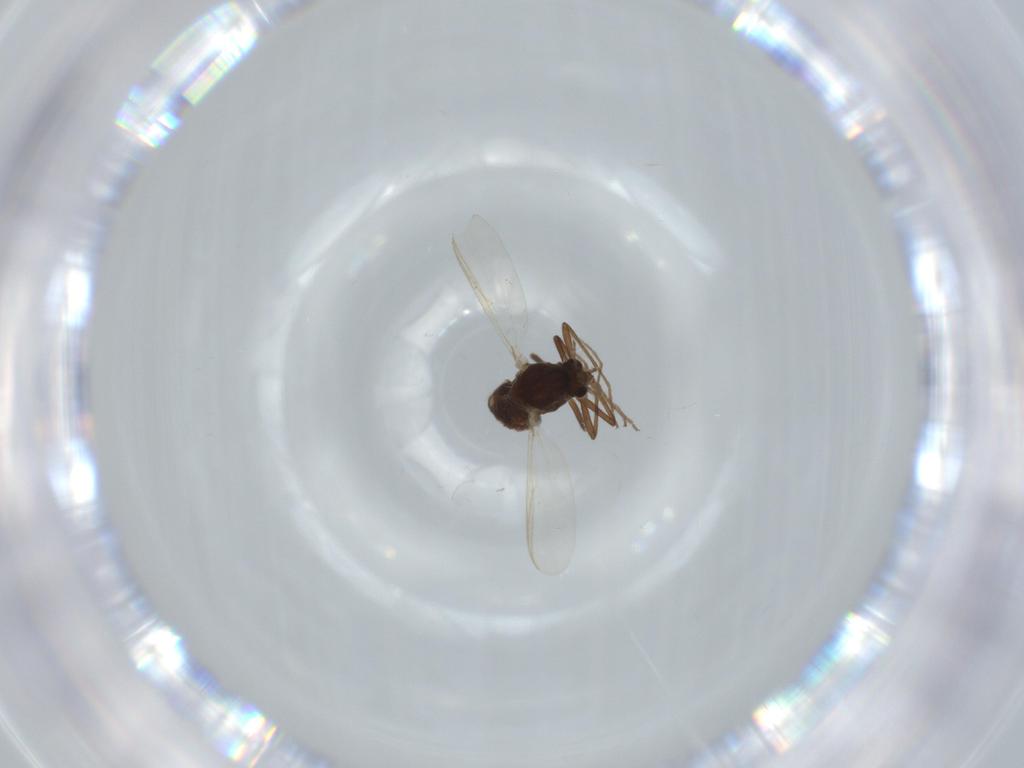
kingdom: Animalia
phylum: Arthropoda
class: Insecta
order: Diptera
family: Chironomidae
